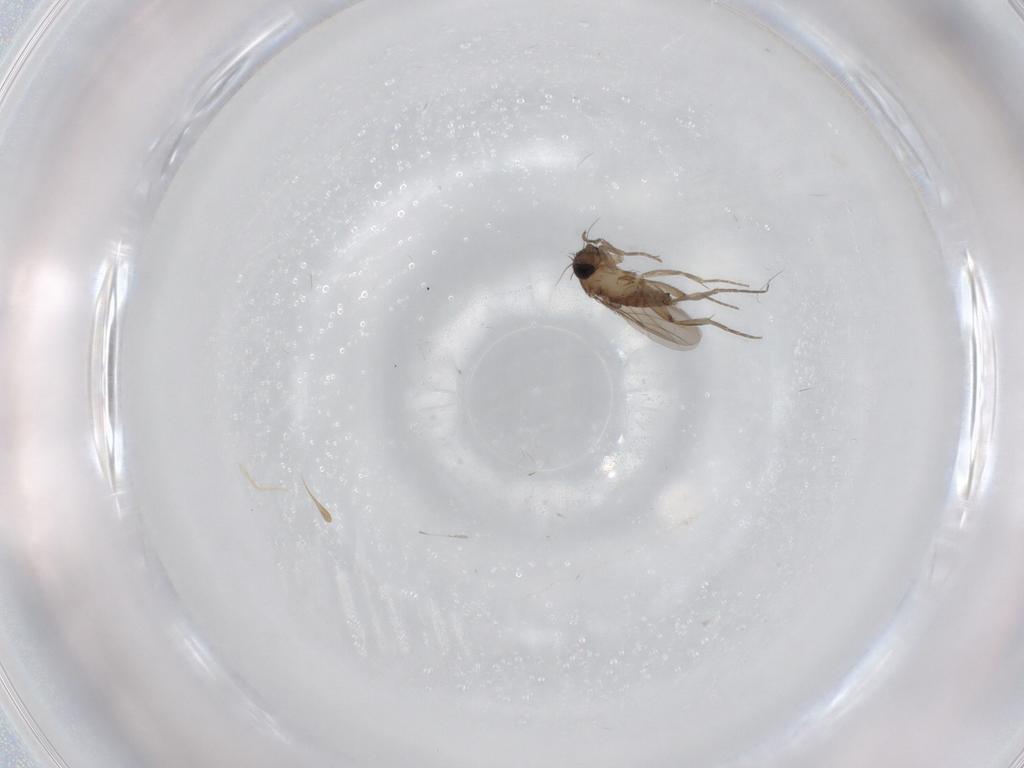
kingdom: Animalia
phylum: Arthropoda
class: Insecta
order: Diptera
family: Phoridae
